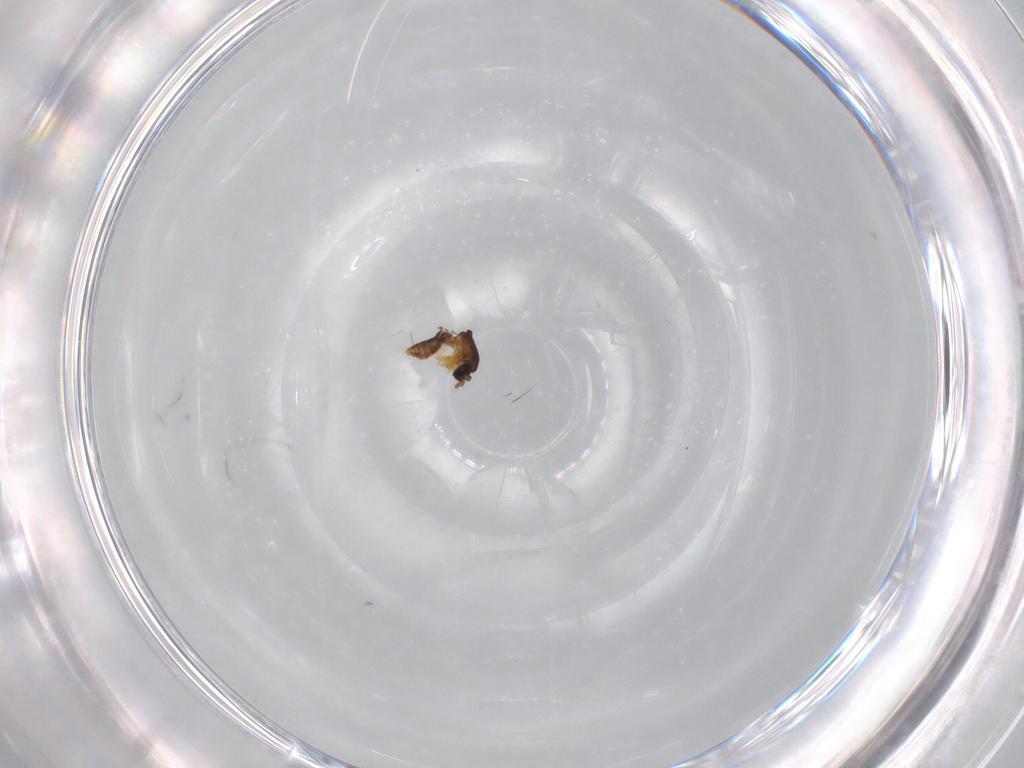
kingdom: Animalia
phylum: Arthropoda
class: Insecta
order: Diptera
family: Ceratopogonidae
